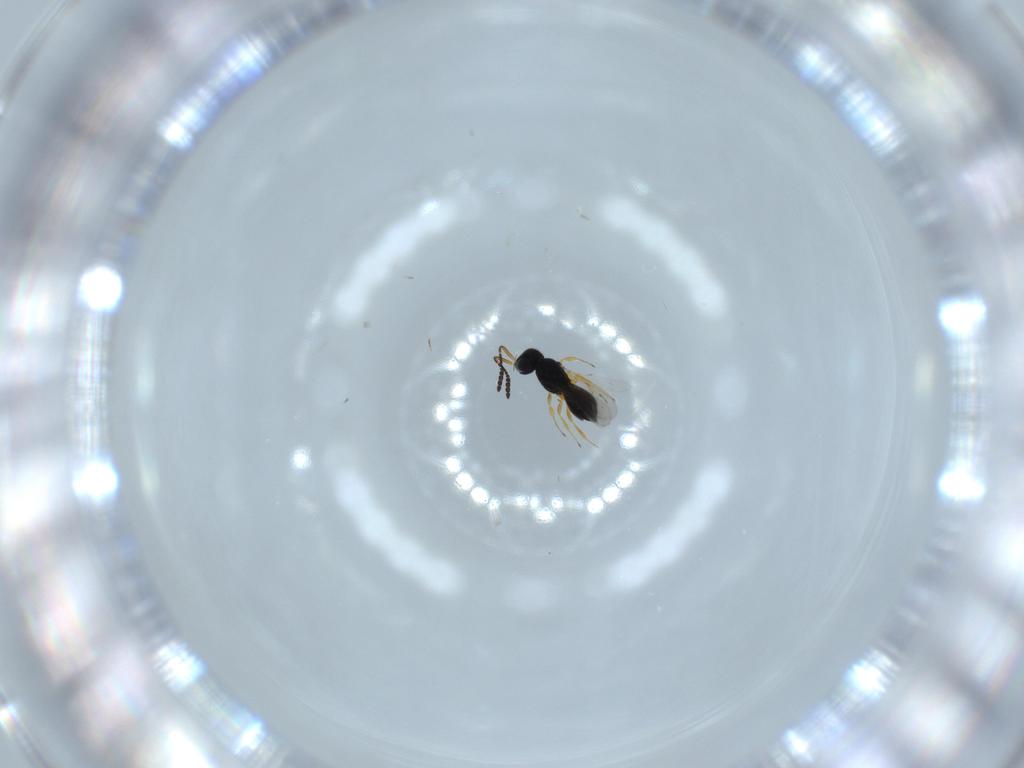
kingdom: Animalia
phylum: Arthropoda
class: Insecta
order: Hymenoptera
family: Scelionidae
